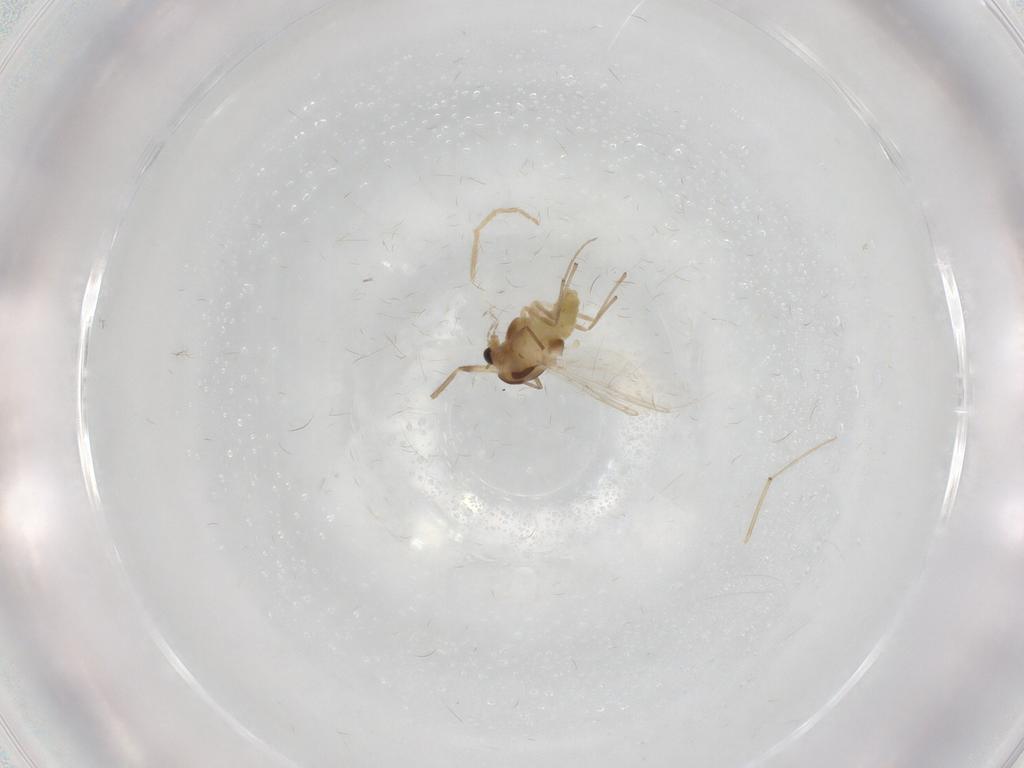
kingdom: Animalia
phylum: Arthropoda
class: Insecta
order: Diptera
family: Chironomidae
